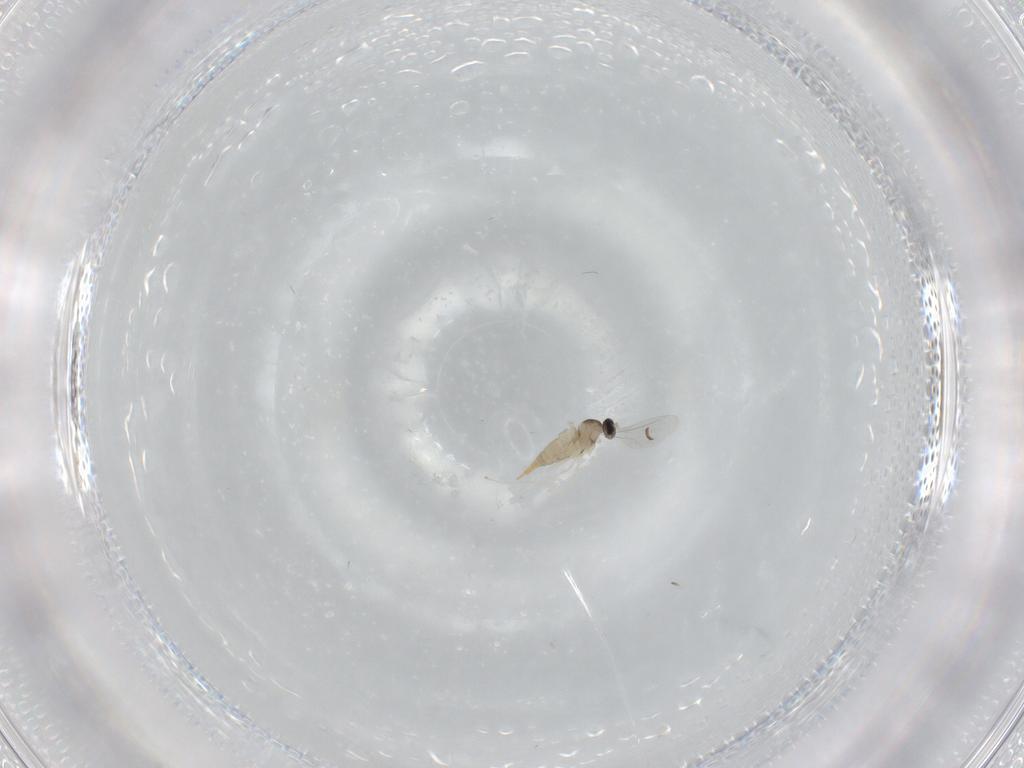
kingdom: Animalia
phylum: Arthropoda
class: Insecta
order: Diptera
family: Cecidomyiidae
